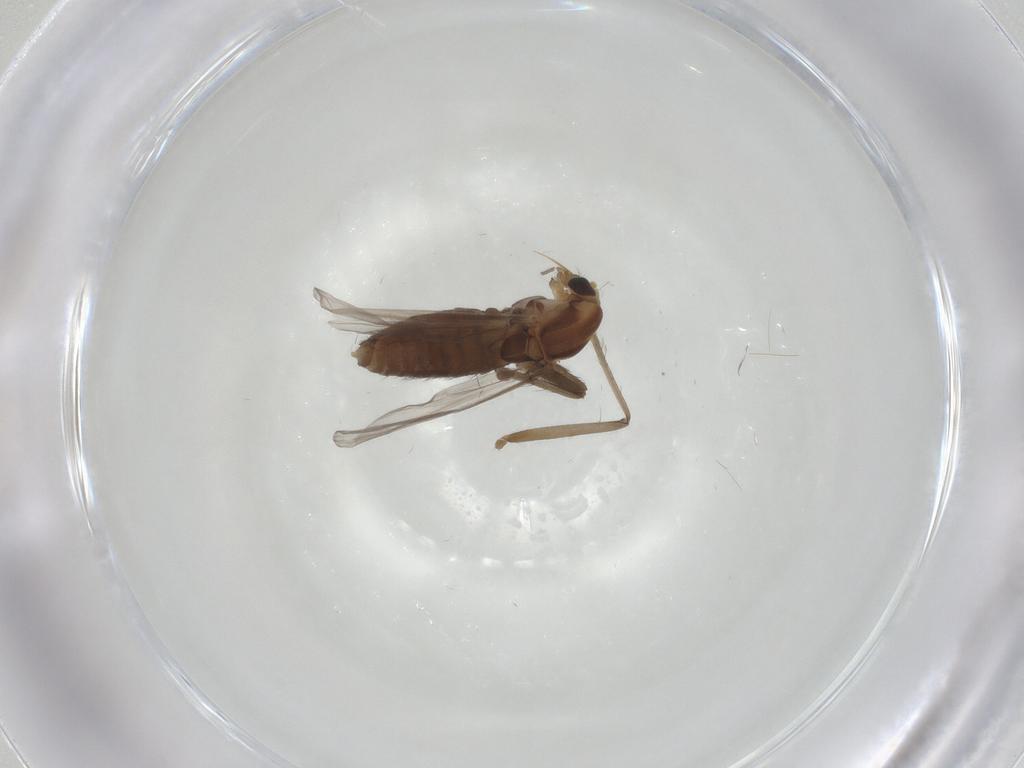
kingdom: Animalia
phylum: Arthropoda
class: Insecta
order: Diptera
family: Chironomidae
